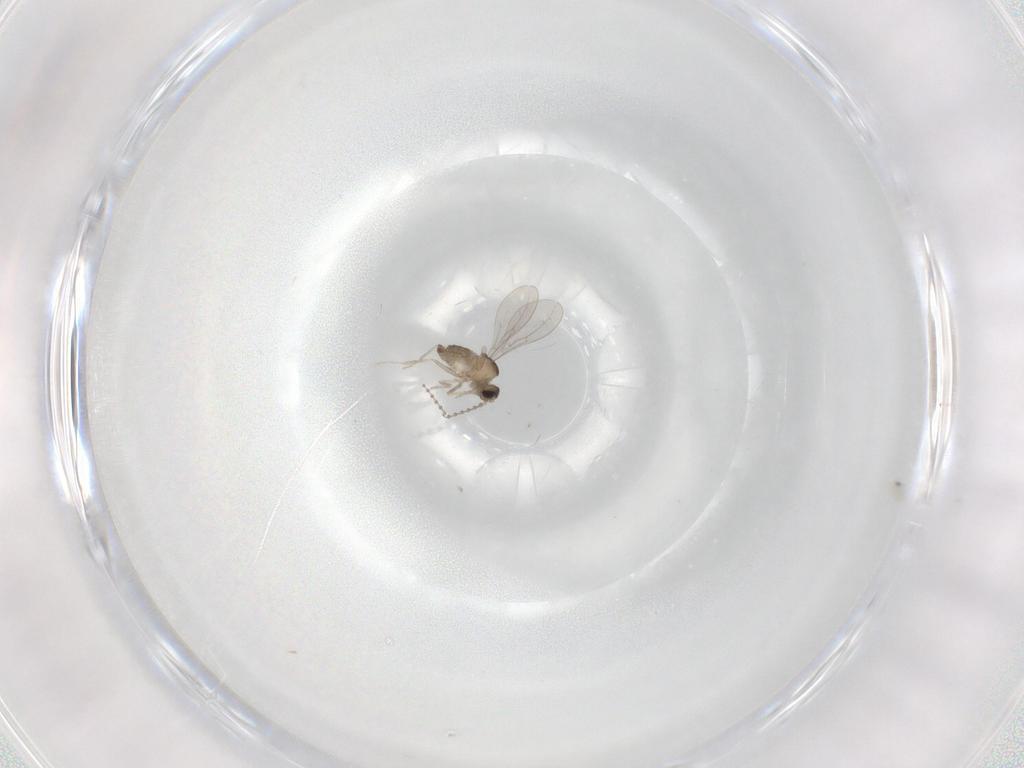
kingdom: Animalia
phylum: Arthropoda
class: Insecta
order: Diptera
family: Cecidomyiidae
